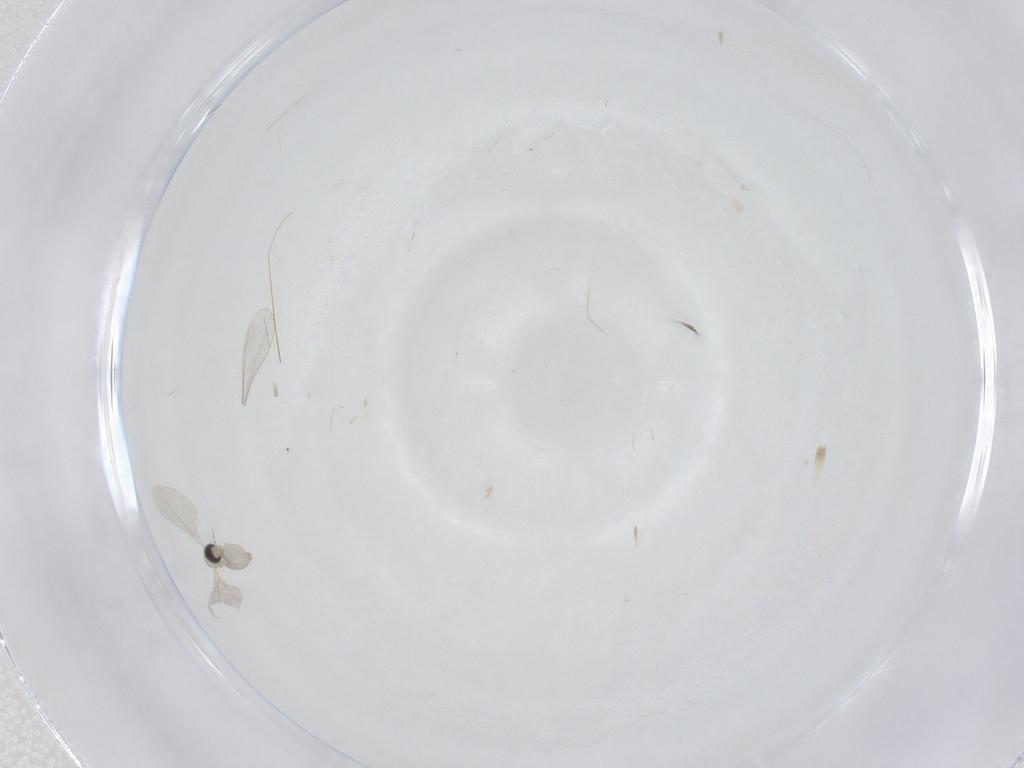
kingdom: Animalia
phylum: Arthropoda
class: Insecta
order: Diptera
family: Cecidomyiidae
